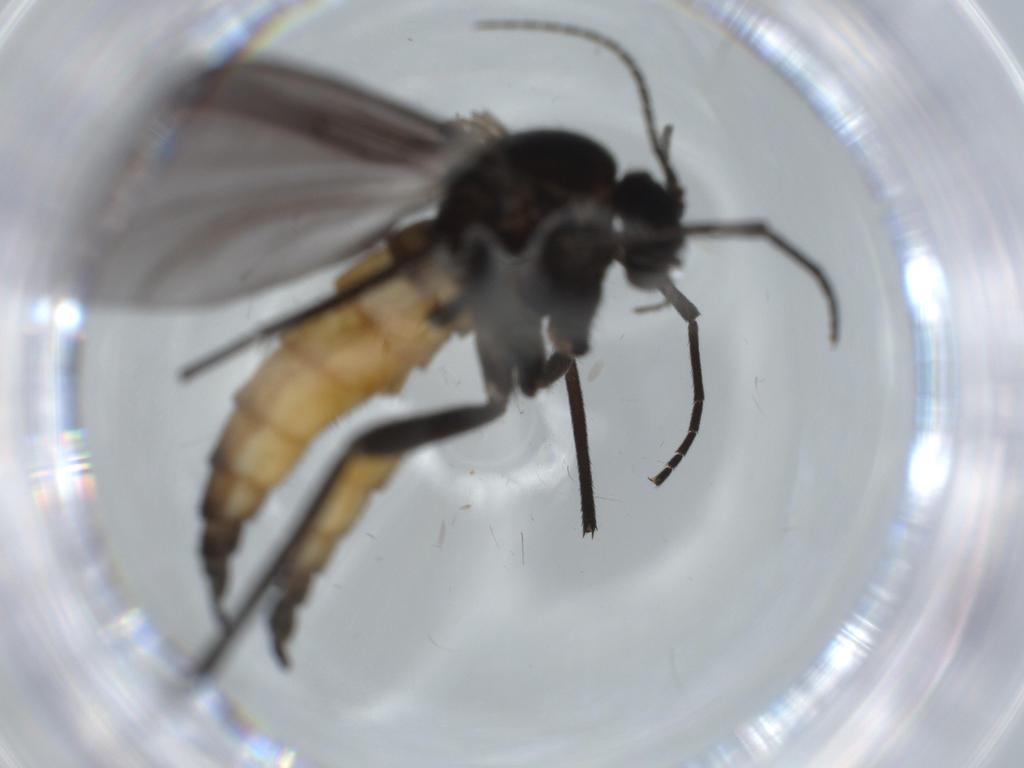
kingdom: Animalia
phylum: Arthropoda
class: Insecta
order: Diptera
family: Sciaridae
